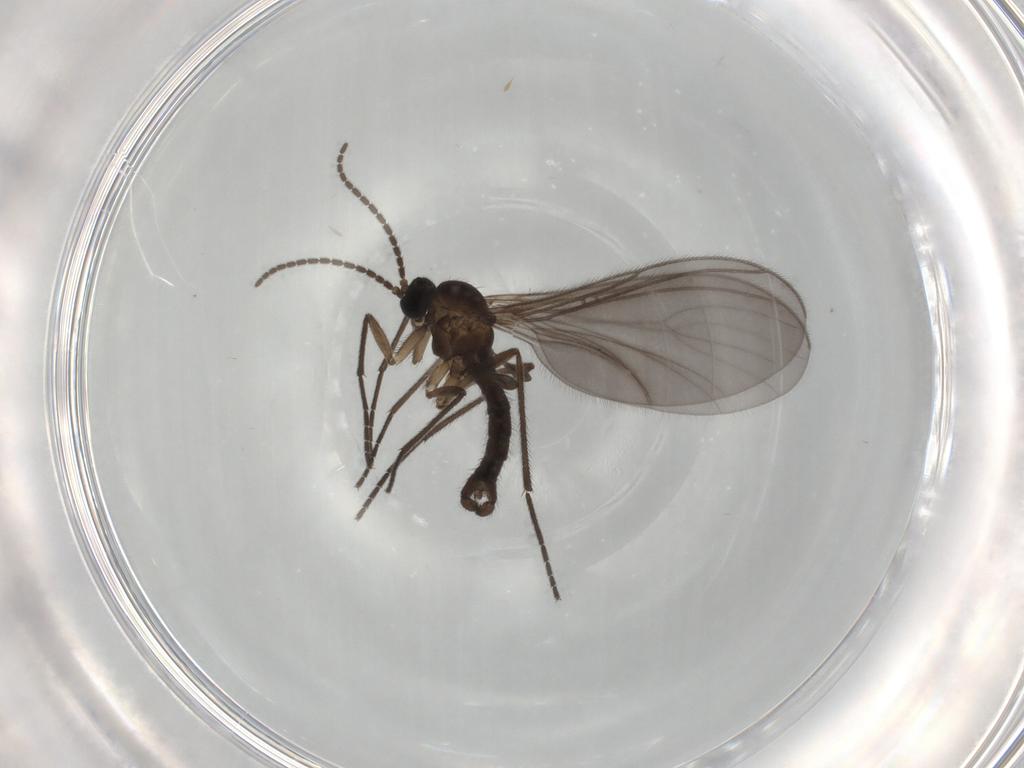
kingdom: Animalia
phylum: Arthropoda
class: Insecta
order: Diptera
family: Sciaridae
